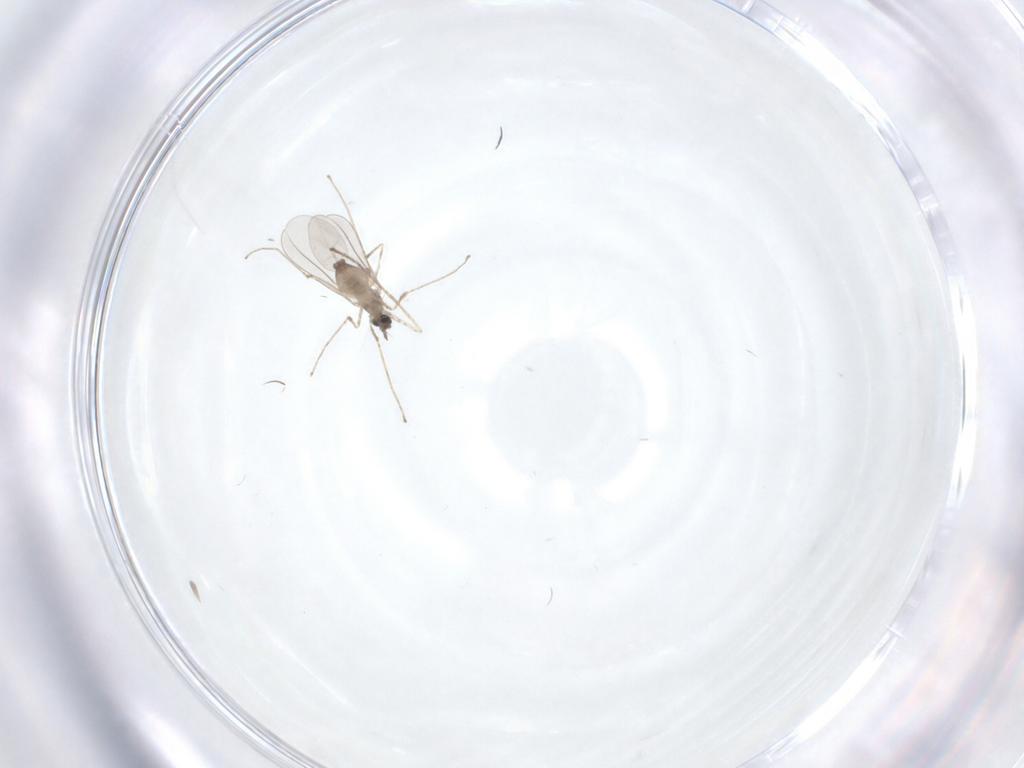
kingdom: Animalia
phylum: Arthropoda
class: Insecta
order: Diptera
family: Cecidomyiidae
